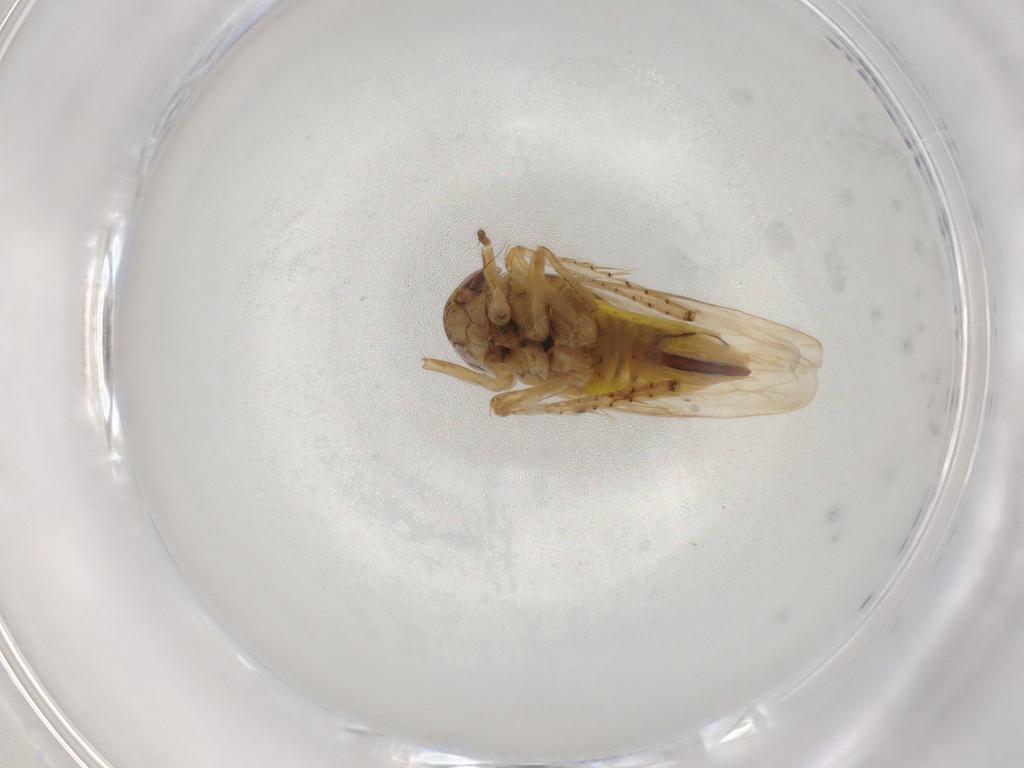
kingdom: Animalia
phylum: Arthropoda
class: Insecta
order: Hemiptera
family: Cicadellidae
